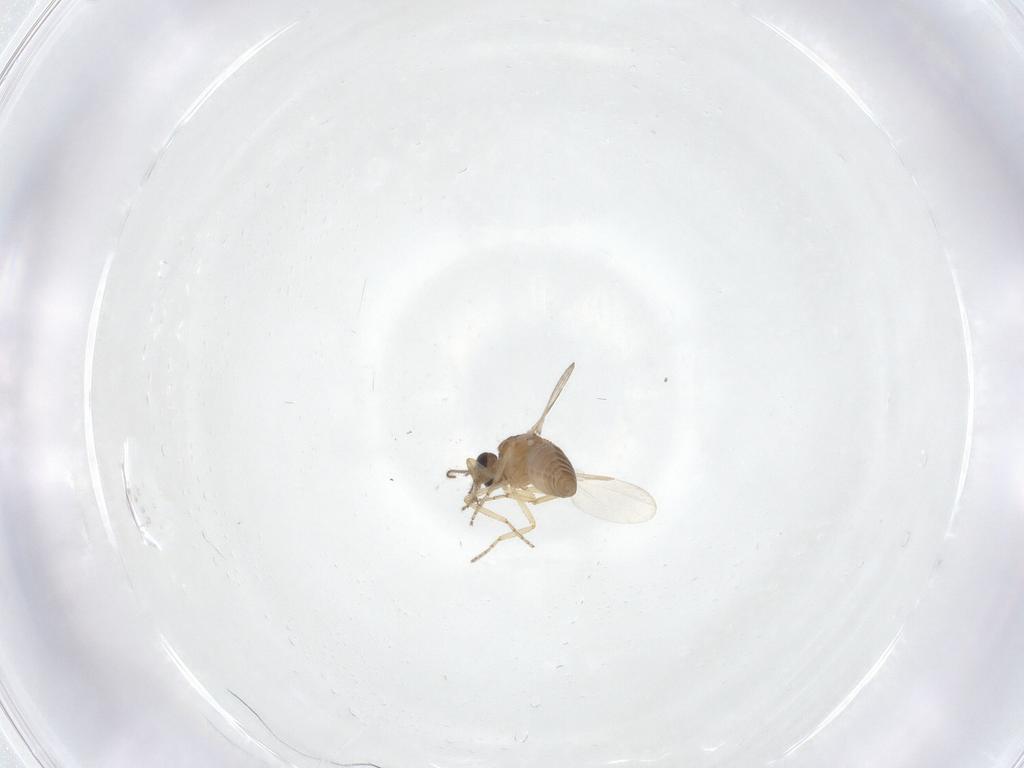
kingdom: Animalia
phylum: Arthropoda
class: Insecta
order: Diptera
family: Ceratopogonidae
